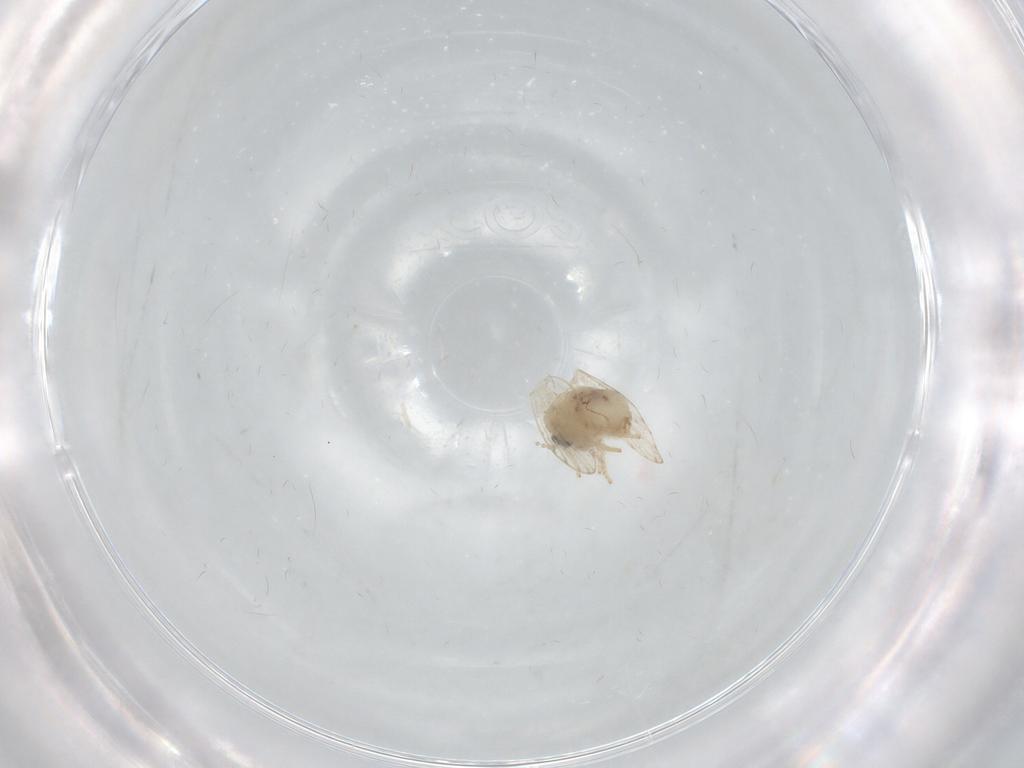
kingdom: Animalia
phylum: Arthropoda
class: Insecta
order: Diptera
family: Psychodidae
